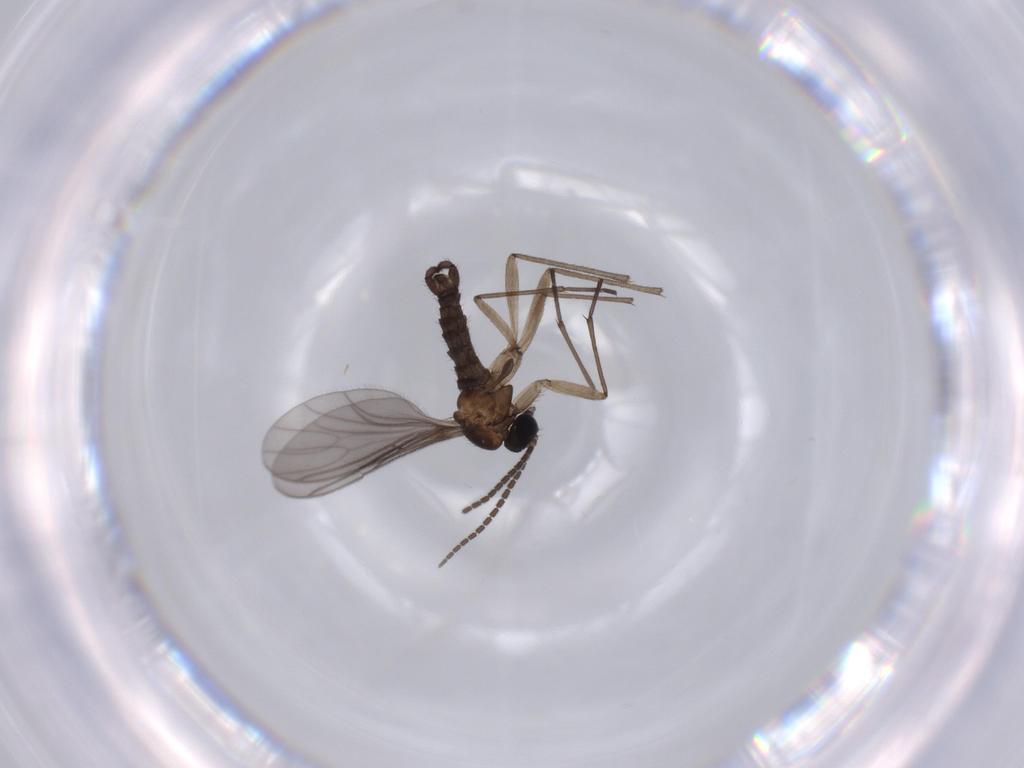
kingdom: Animalia
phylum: Arthropoda
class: Insecta
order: Diptera
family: Sciaridae
